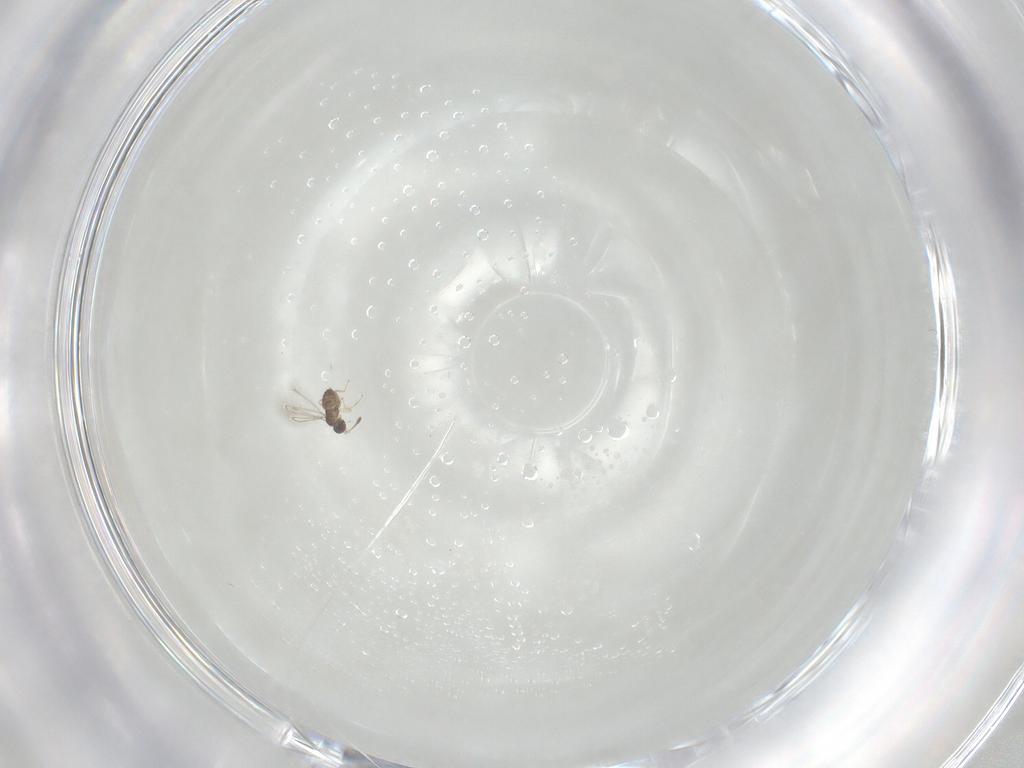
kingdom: Animalia
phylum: Arthropoda
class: Insecta
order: Hymenoptera
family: Mymaridae
